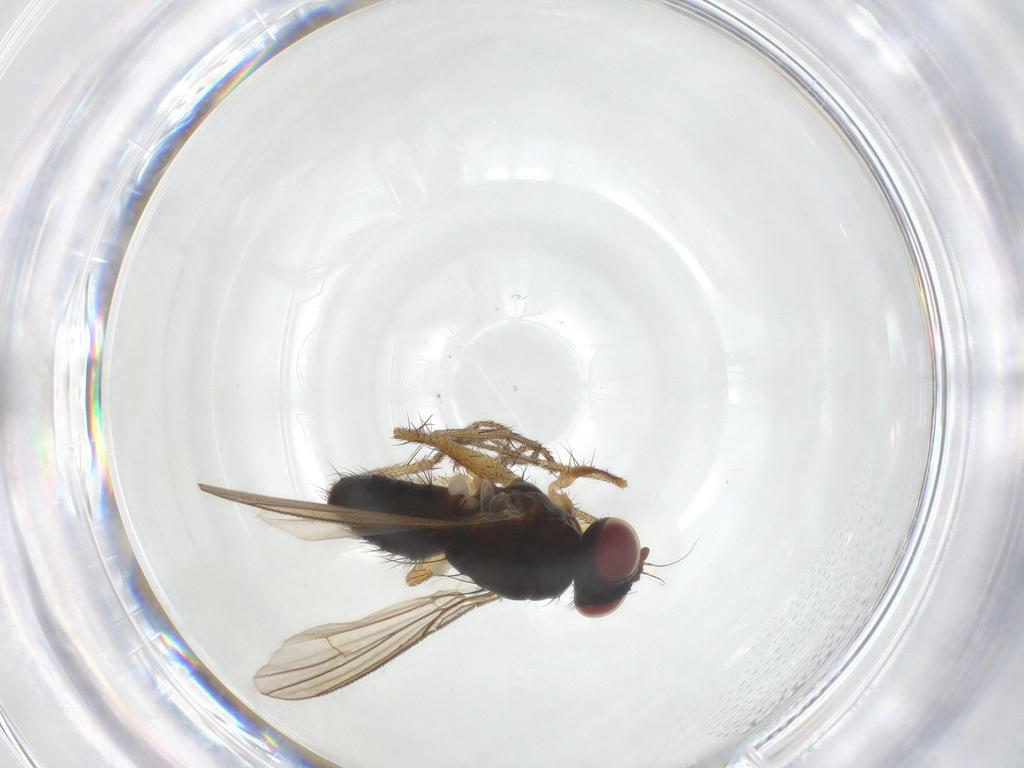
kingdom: Animalia
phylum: Arthropoda
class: Insecta
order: Diptera
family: Muscidae
